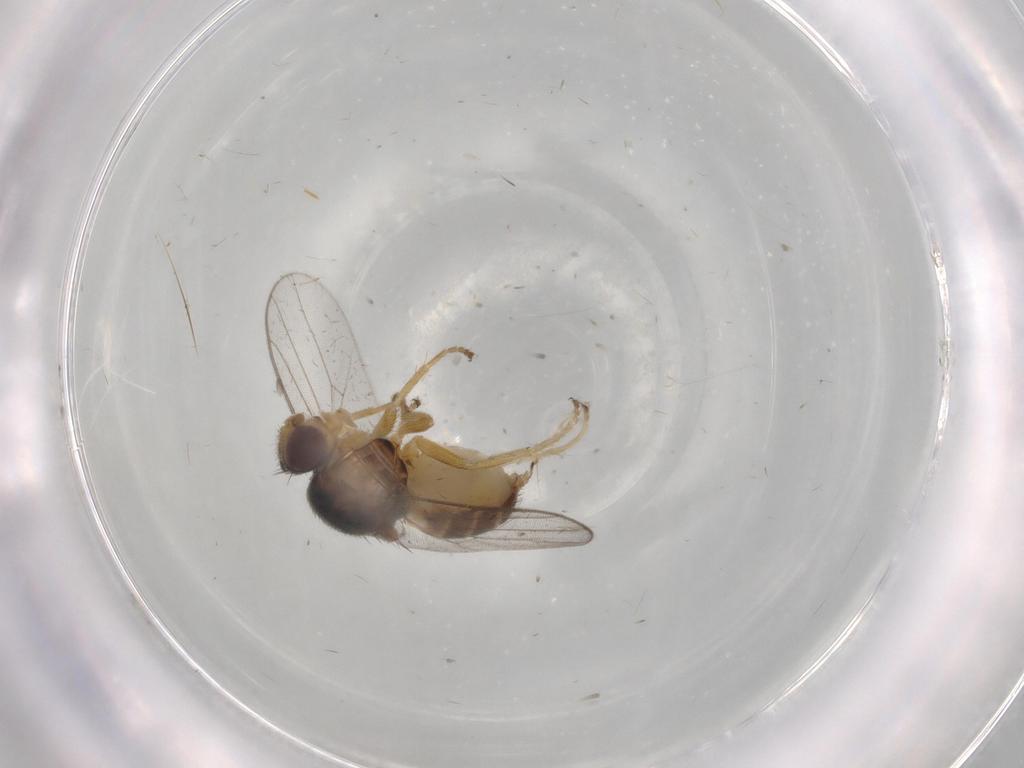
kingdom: Animalia
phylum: Arthropoda
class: Insecta
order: Diptera
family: Chloropidae
